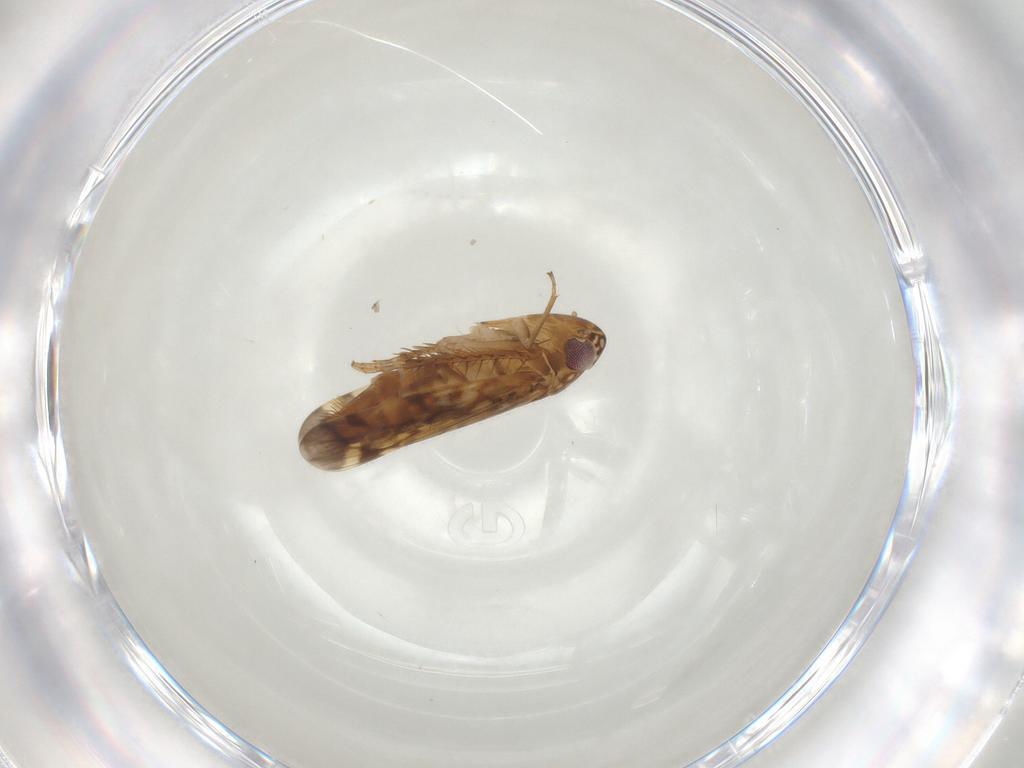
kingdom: Animalia
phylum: Arthropoda
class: Insecta
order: Hemiptera
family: Cicadellidae
